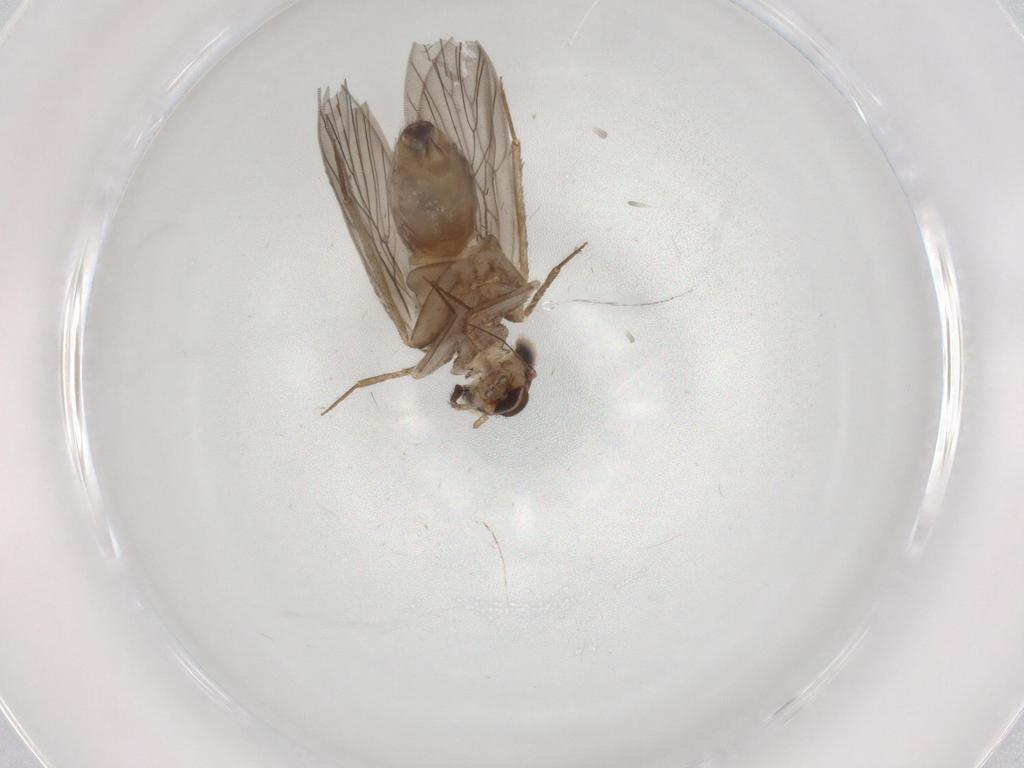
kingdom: Animalia
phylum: Arthropoda
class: Insecta
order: Psocodea
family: Lepidopsocidae
